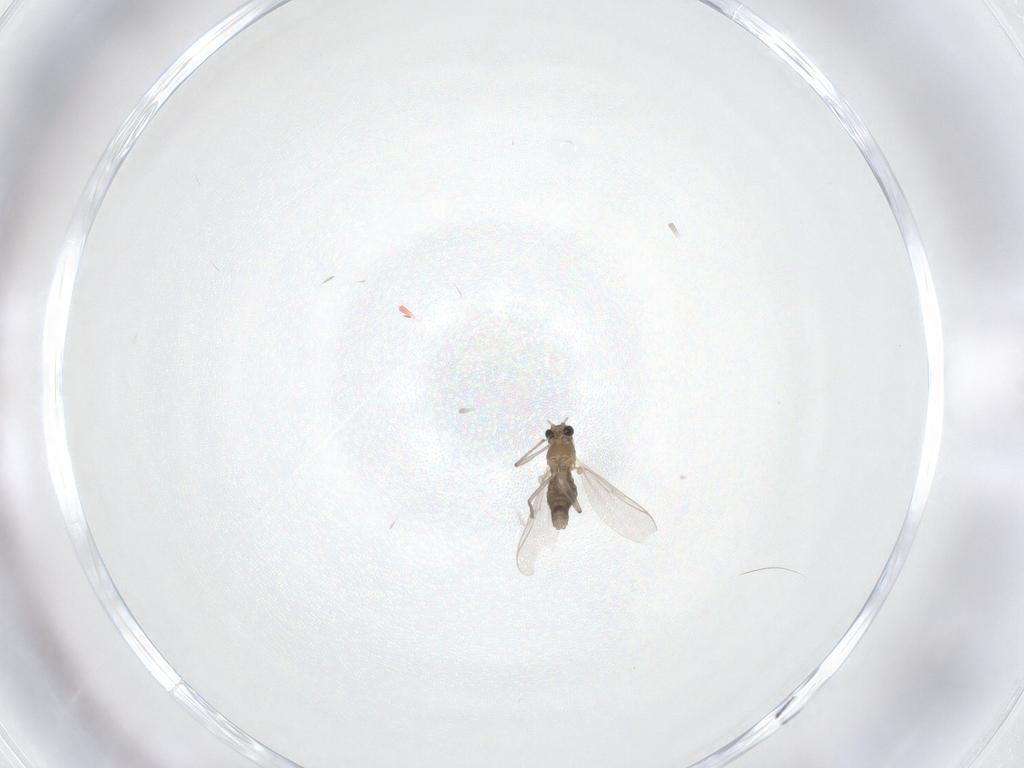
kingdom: Animalia
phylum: Arthropoda
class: Insecta
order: Diptera
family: Chironomidae
